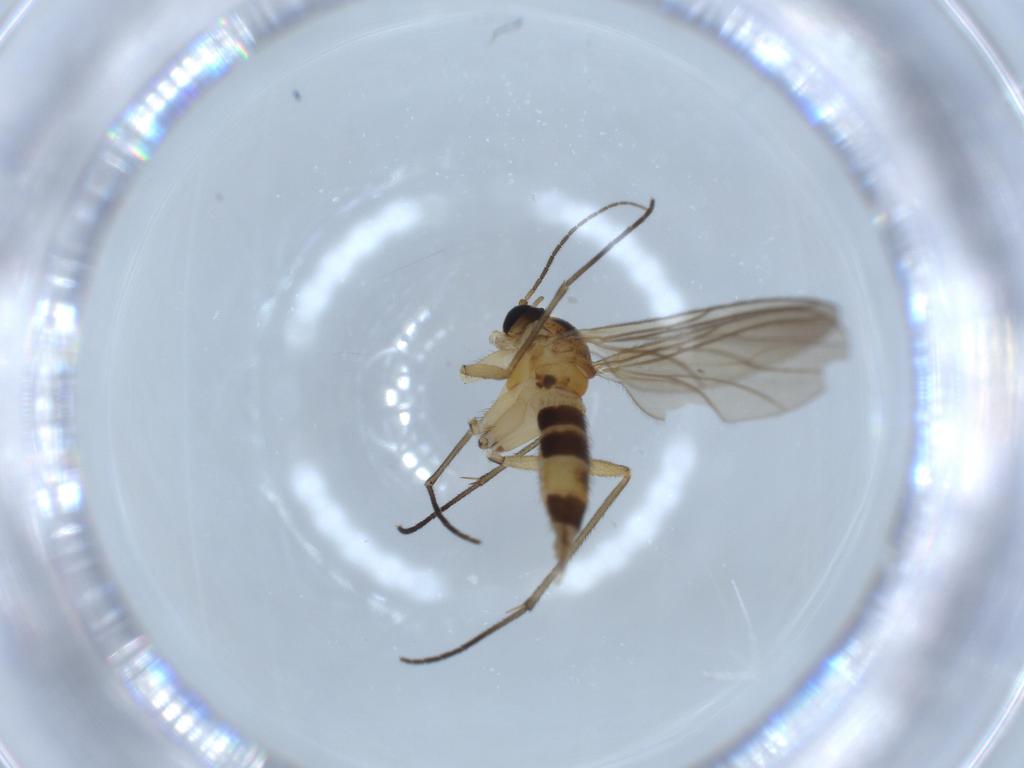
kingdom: Animalia
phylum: Arthropoda
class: Insecta
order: Diptera
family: Sciaridae
